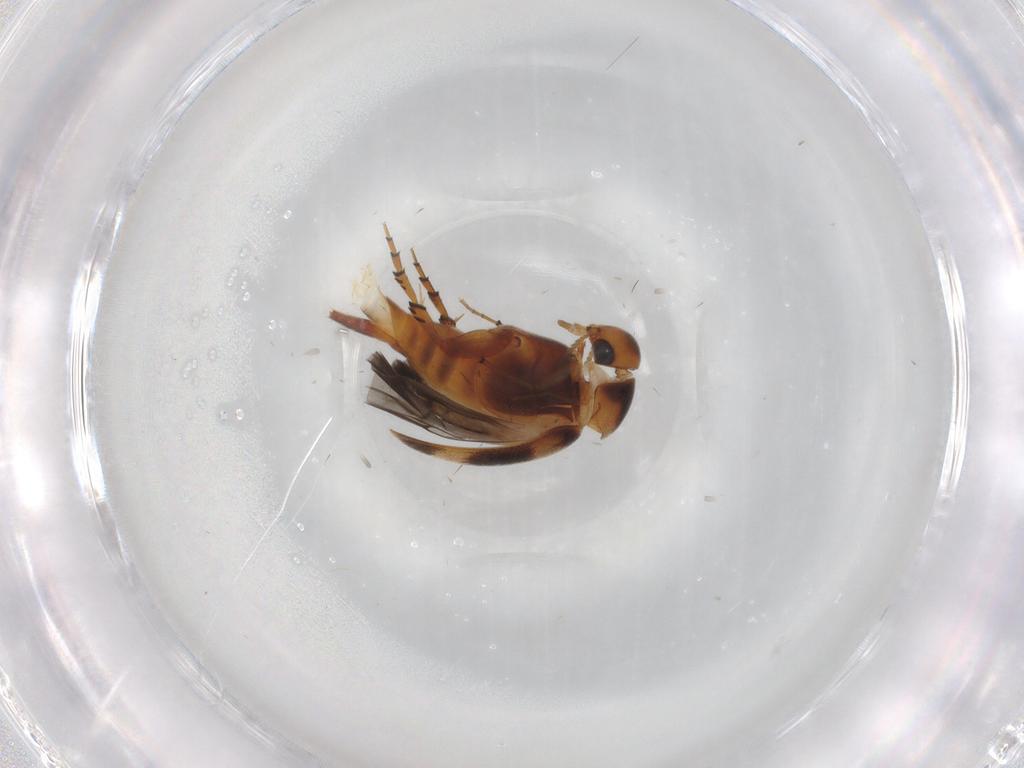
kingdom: Animalia
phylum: Arthropoda
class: Insecta
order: Coleoptera
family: Mordellidae
